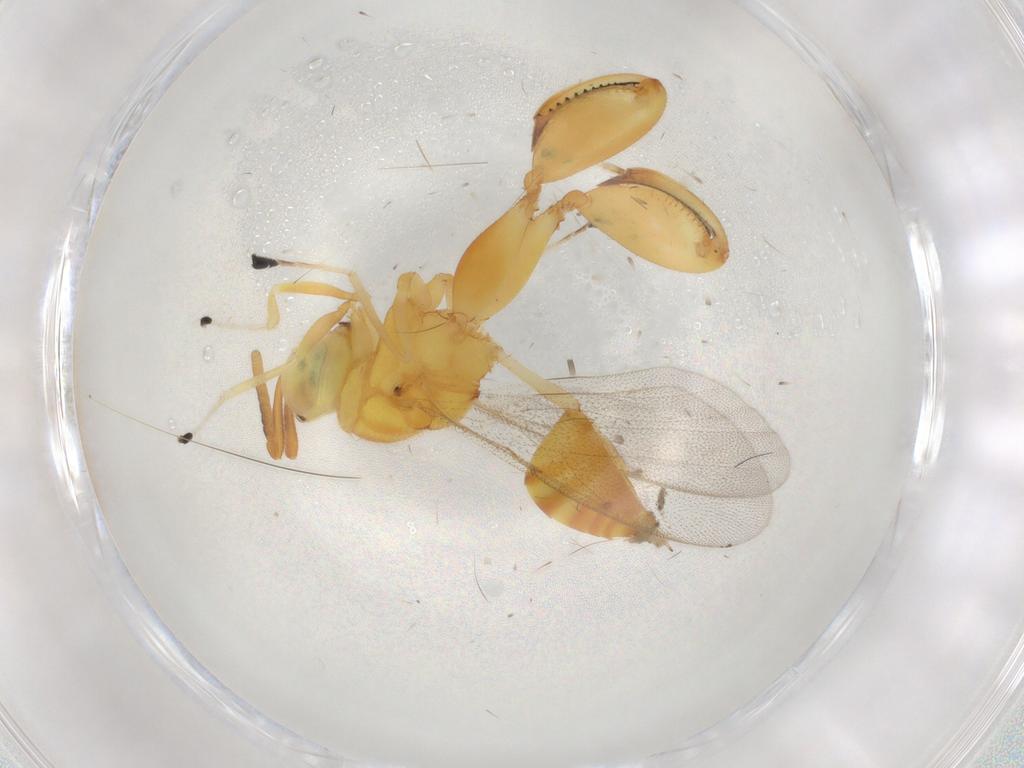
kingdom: Animalia
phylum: Arthropoda
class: Insecta
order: Hymenoptera
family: Chalcididae
